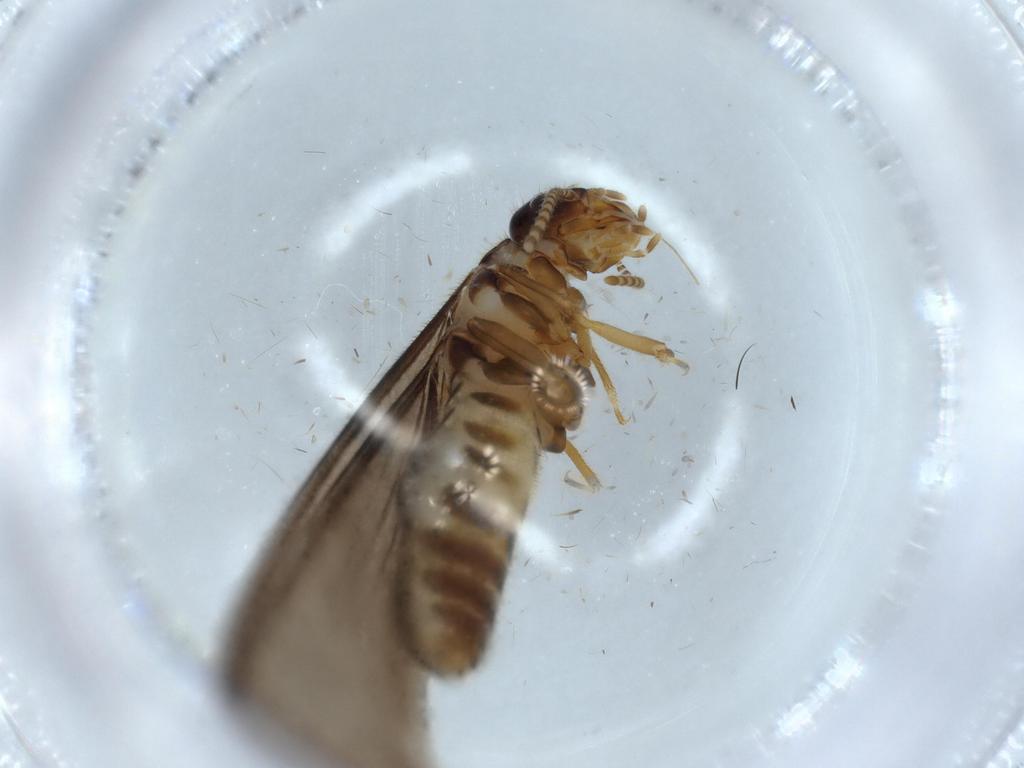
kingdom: Animalia
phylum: Arthropoda
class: Insecta
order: Blattodea
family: Termitidae
